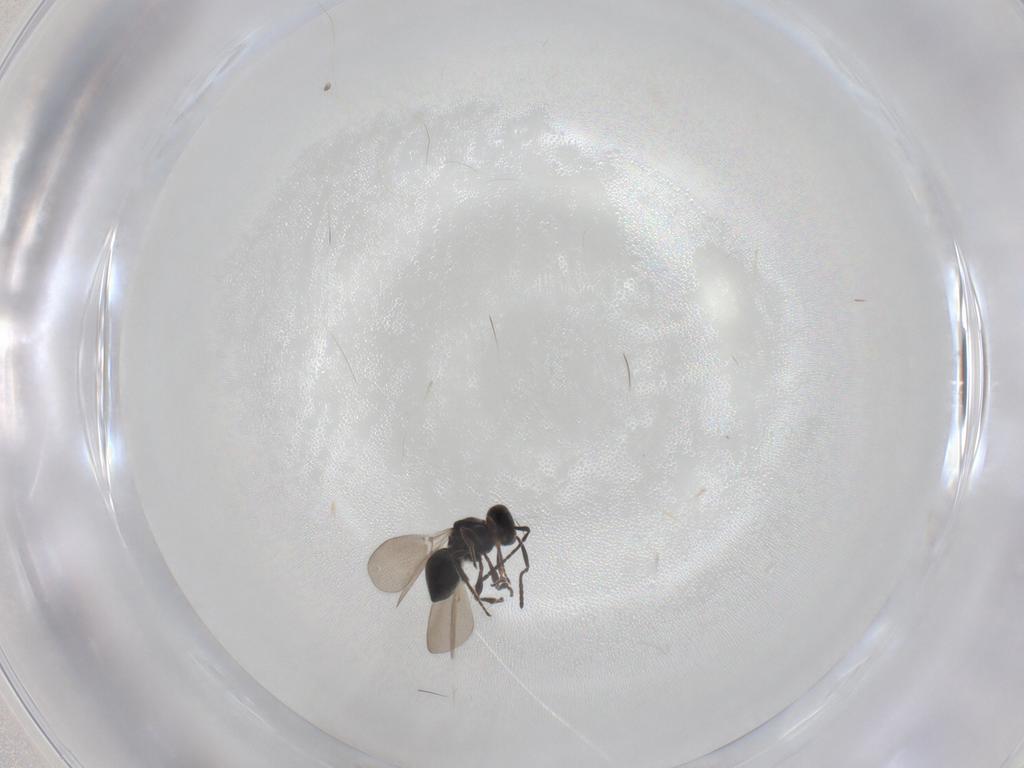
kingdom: Animalia
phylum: Arthropoda
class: Insecta
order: Hymenoptera
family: Platygastridae
